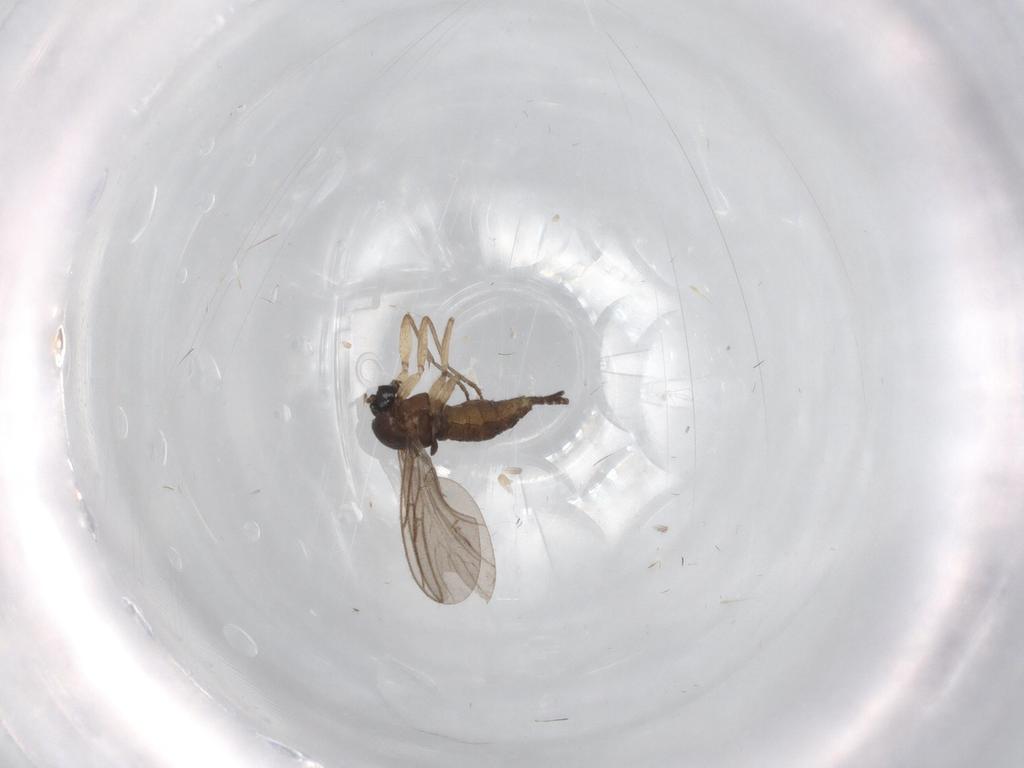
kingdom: Animalia
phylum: Arthropoda
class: Insecta
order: Diptera
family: Sciaridae
